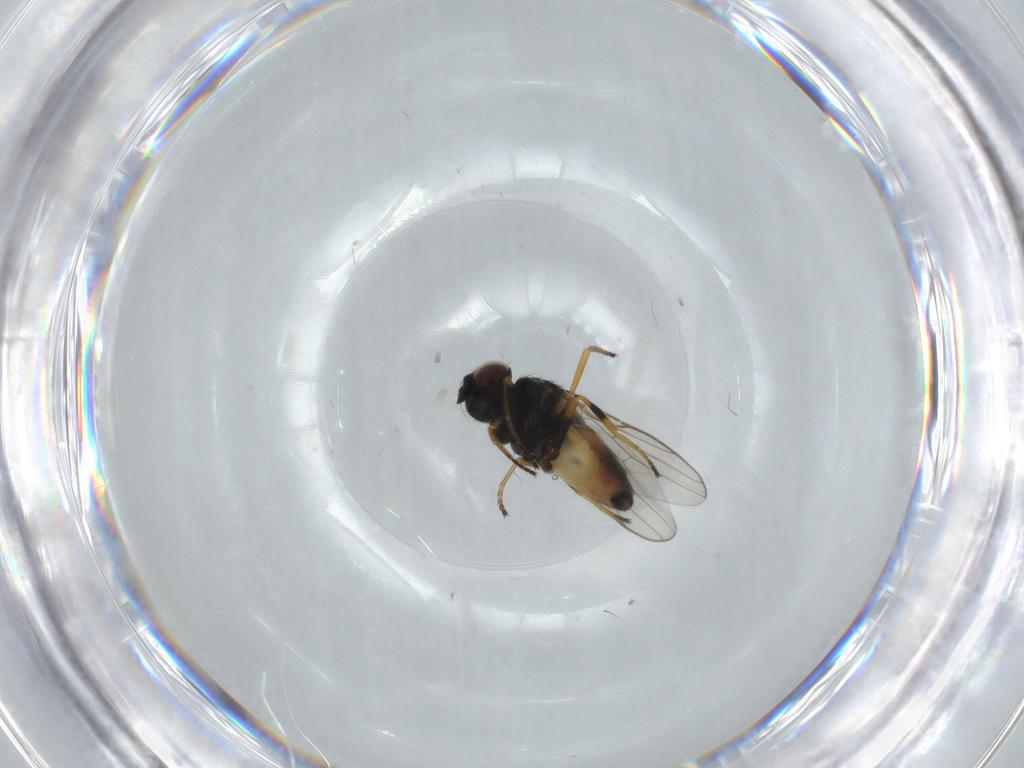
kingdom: Animalia
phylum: Arthropoda
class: Insecta
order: Diptera
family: Chloropidae
